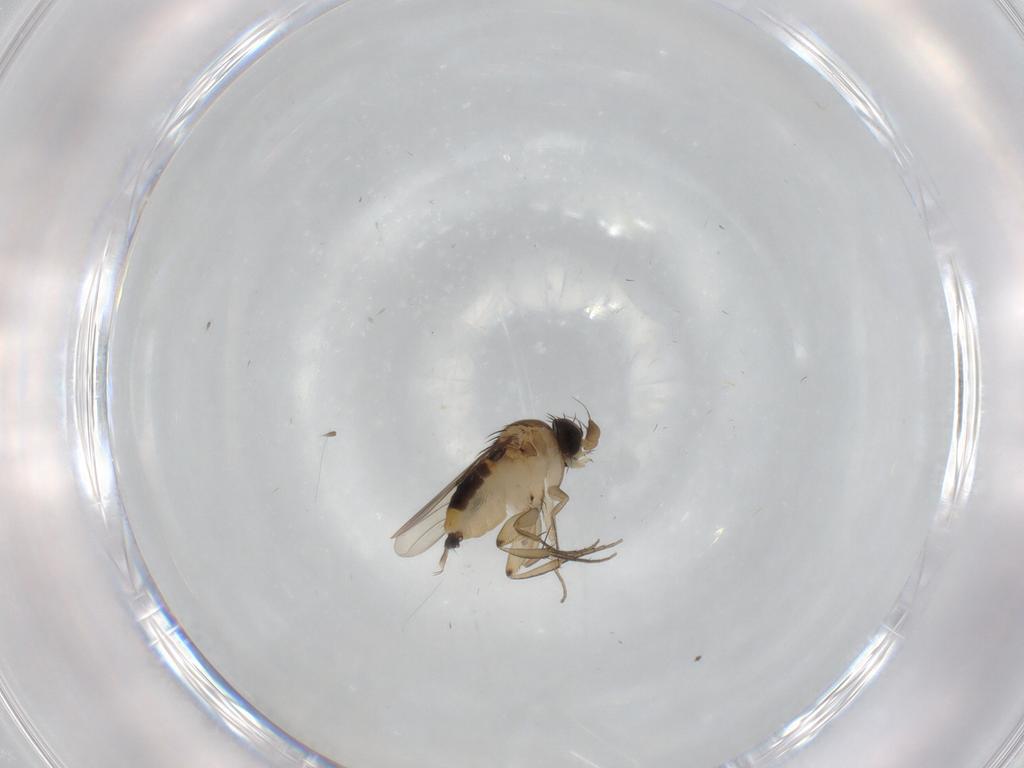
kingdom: Animalia
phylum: Arthropoda
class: Insecta
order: Diptera
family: Phoridae
